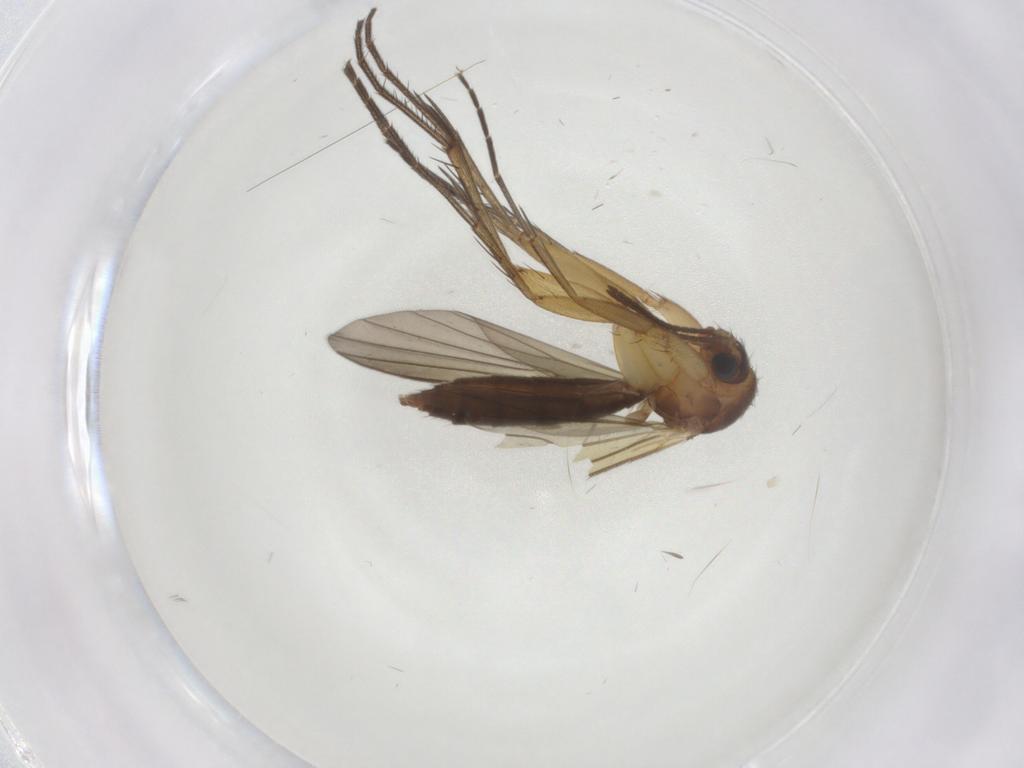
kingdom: Animalia
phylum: Arthropoda
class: Insecta
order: Diptera
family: Mycetophilidae
